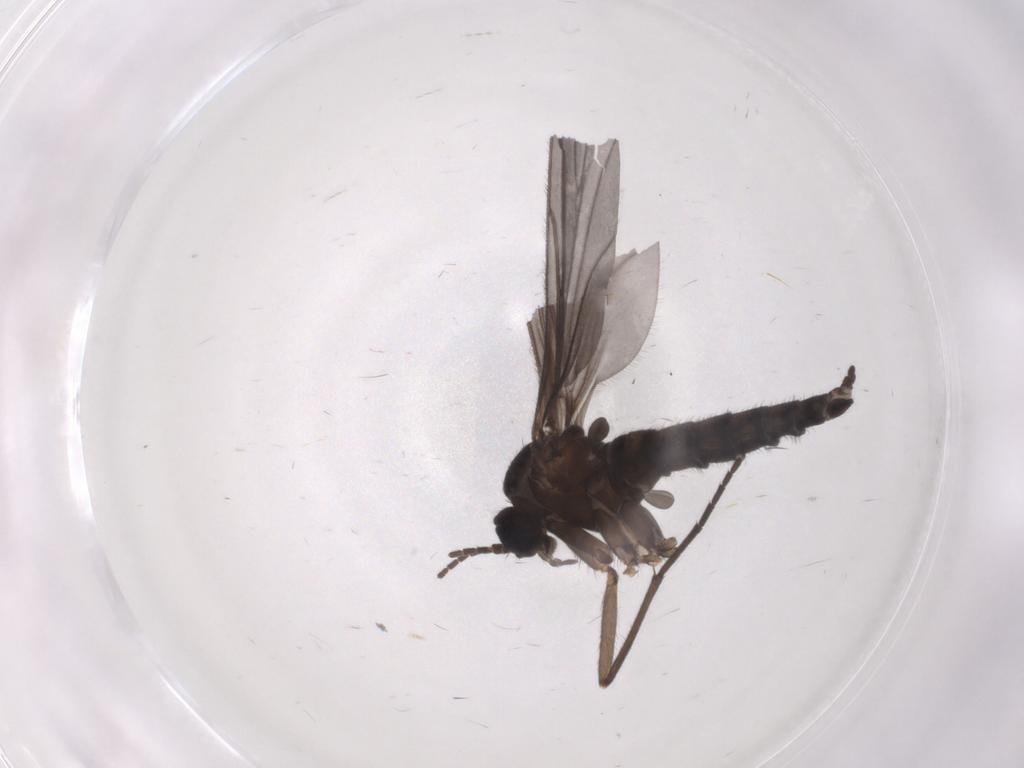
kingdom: Animalia
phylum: Arthropoda
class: Insecta
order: Diptera
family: Sciaridae
